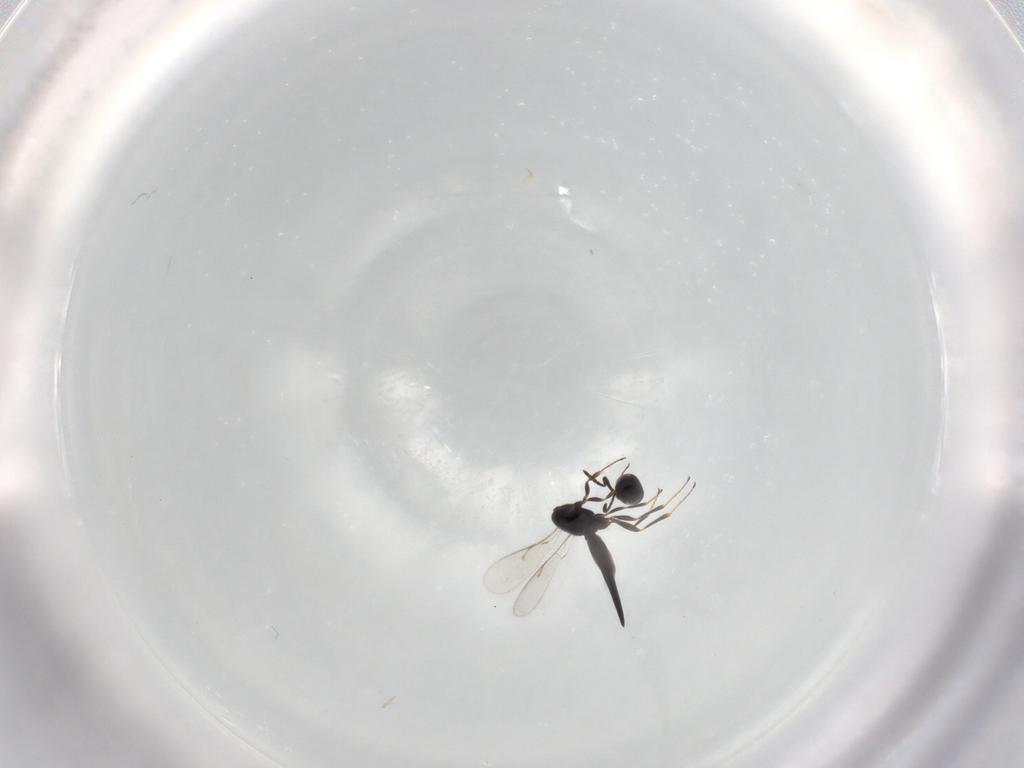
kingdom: Animalia
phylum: Arthropoda
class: Insecta
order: Hymenoptera
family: Scelionidae
